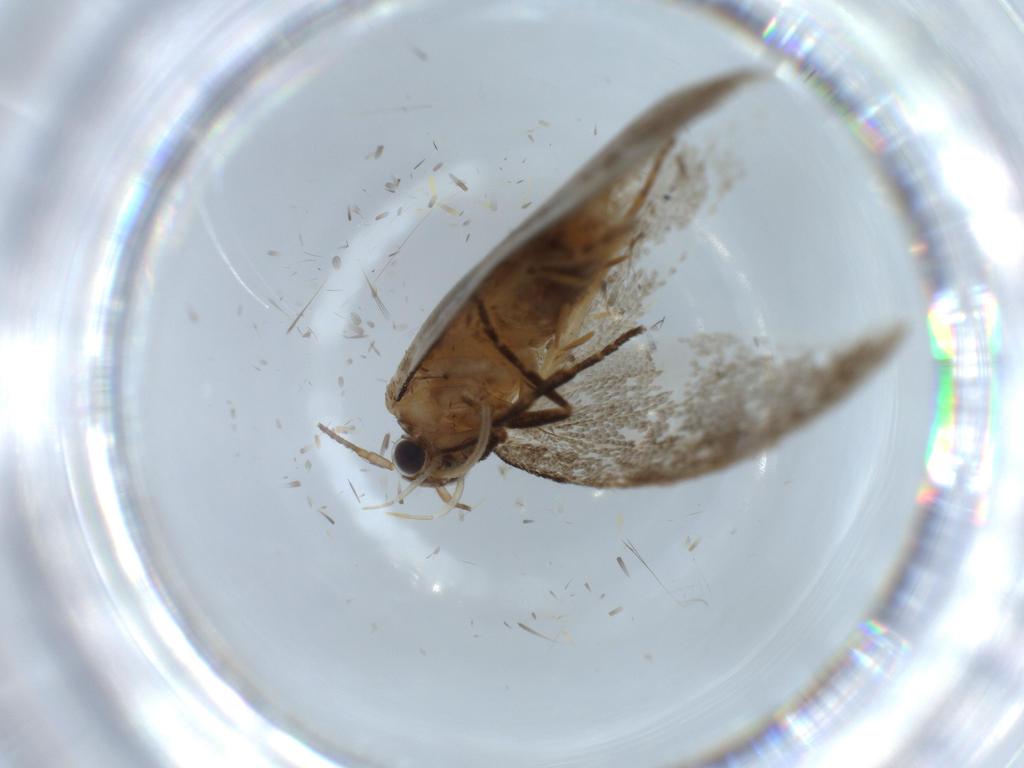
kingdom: Animalia
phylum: Arthropoda
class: Insecta
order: Lepidoptera
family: Oecophoridae
